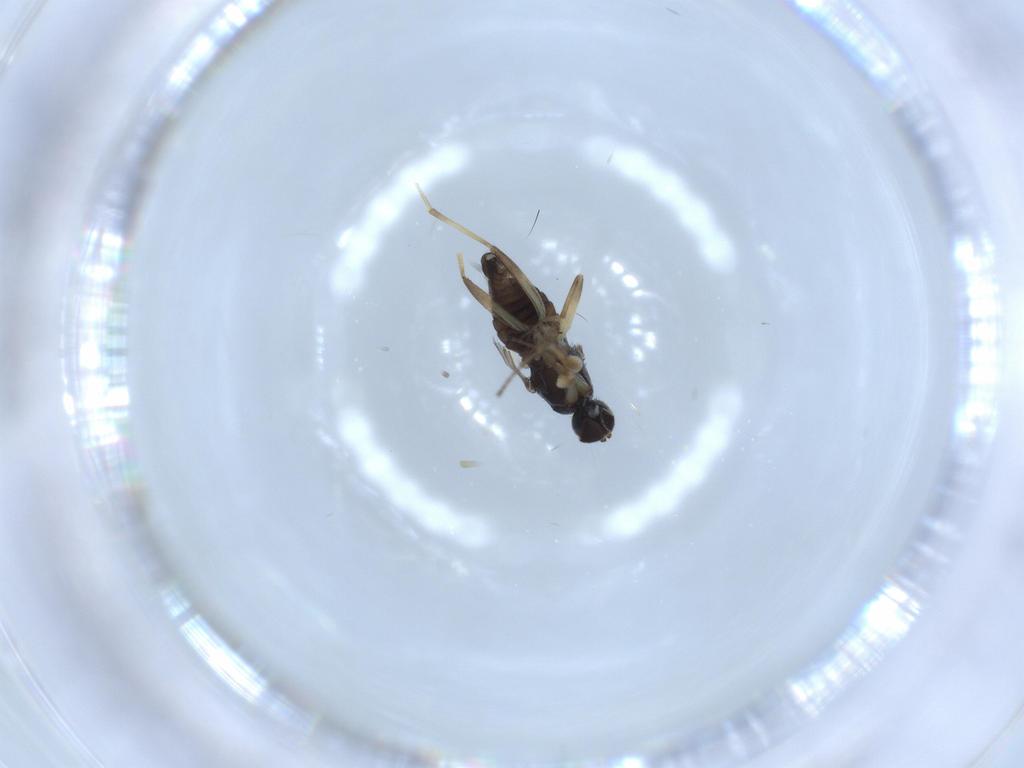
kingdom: Animalia
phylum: Arthropoda
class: Insecta
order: Diptera
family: Hybotidae
